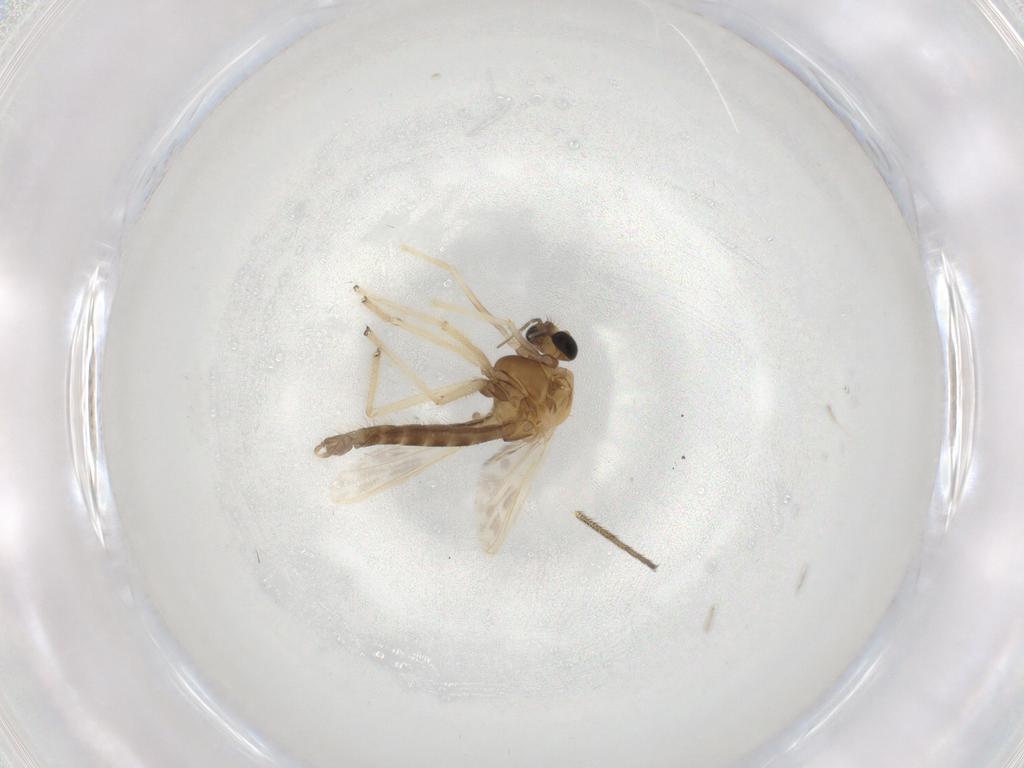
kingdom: Animalia
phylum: Arthropoda
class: Insecta
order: Diptera
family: Chironomidae
